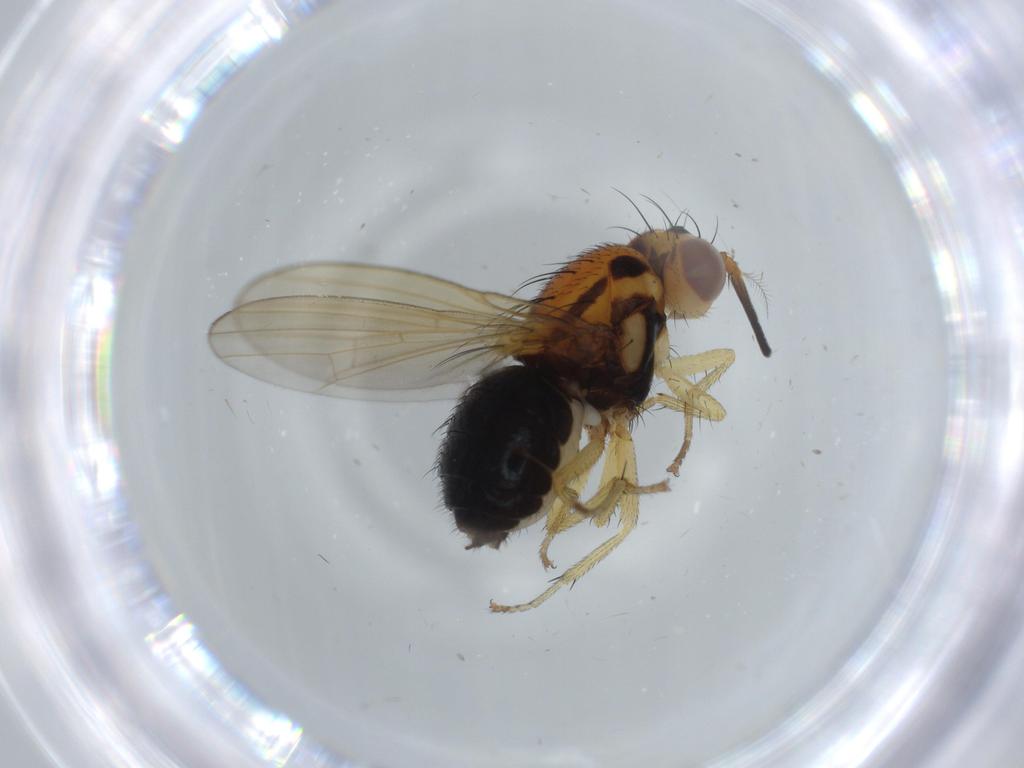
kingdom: Animalia
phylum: Arthropoda
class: Insecta
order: Diptera
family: Lauxaniidae
